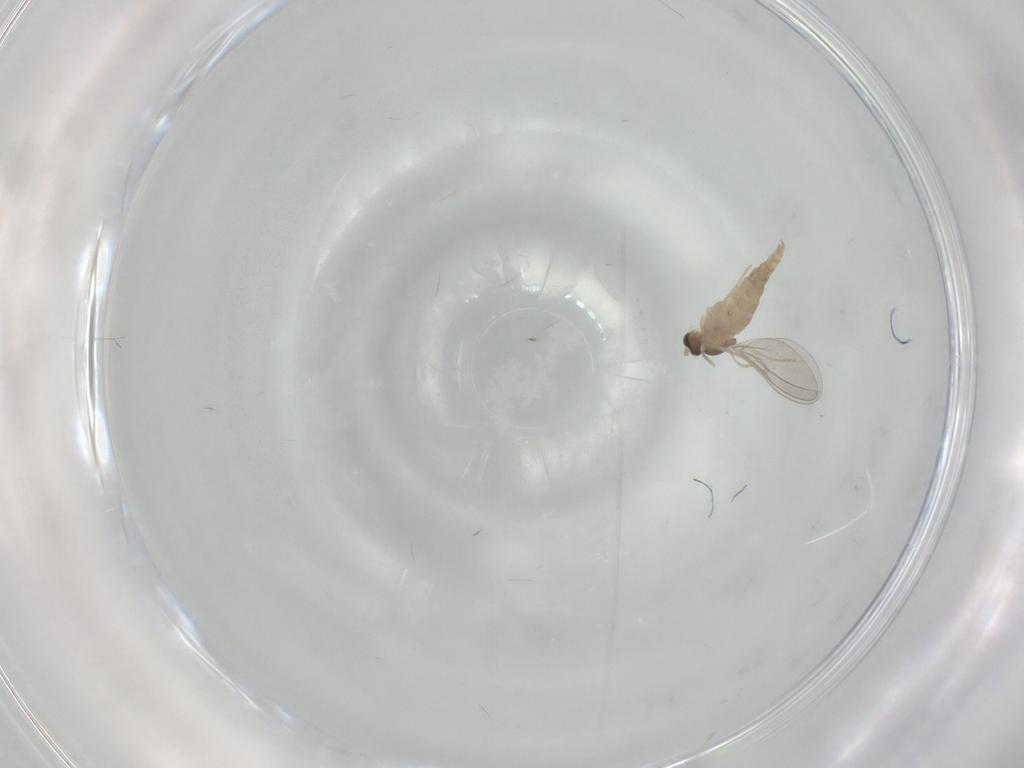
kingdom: Animalia
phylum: Arthropoda
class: Insecta
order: Diptera
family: Cecidomyiidae
